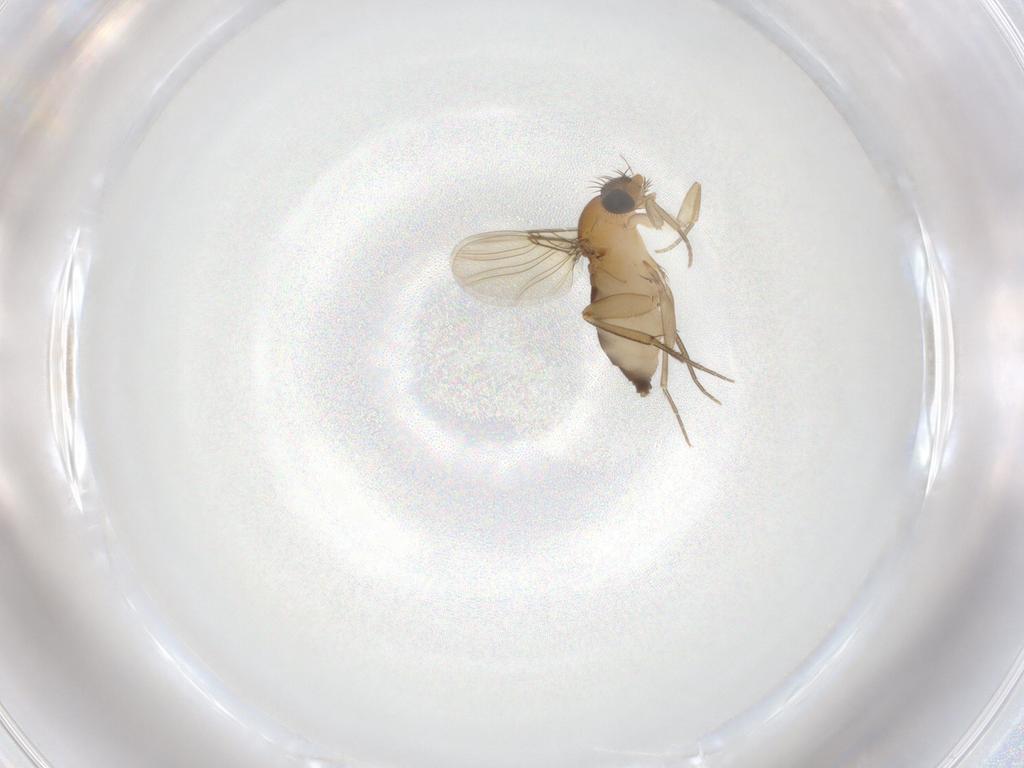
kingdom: Animalia
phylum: Arthropoda
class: Insecta
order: Diptera
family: Phoridae
